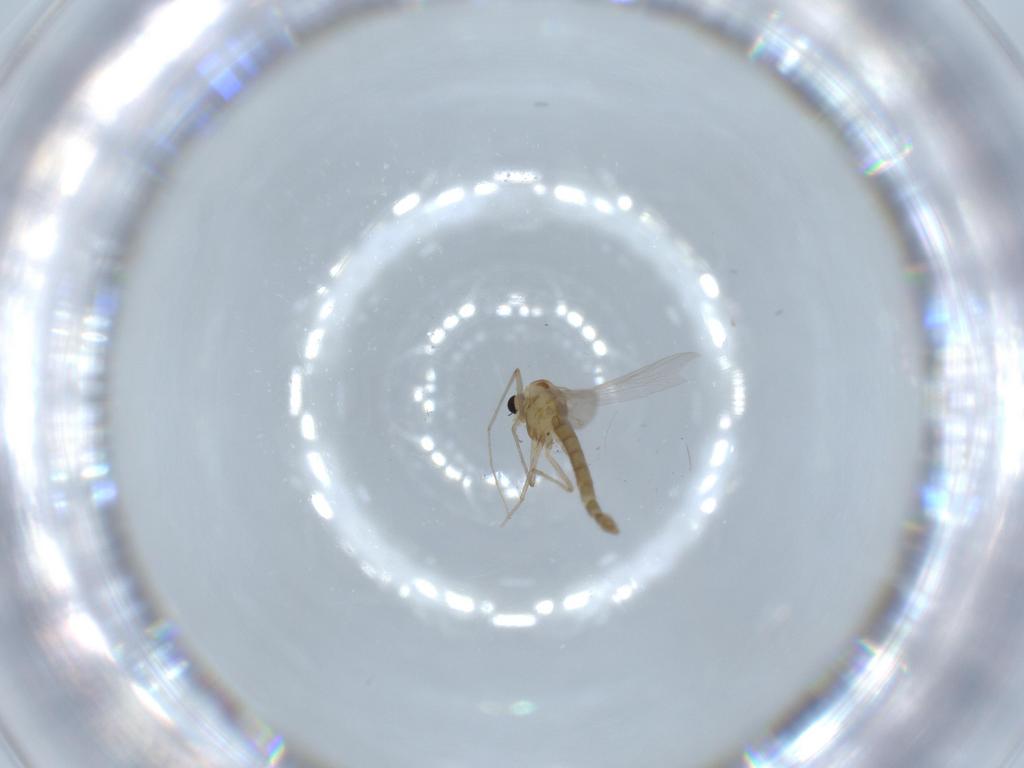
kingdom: Animalia
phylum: Arthropoda
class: Insecta
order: Diptera
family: Chironomidae
